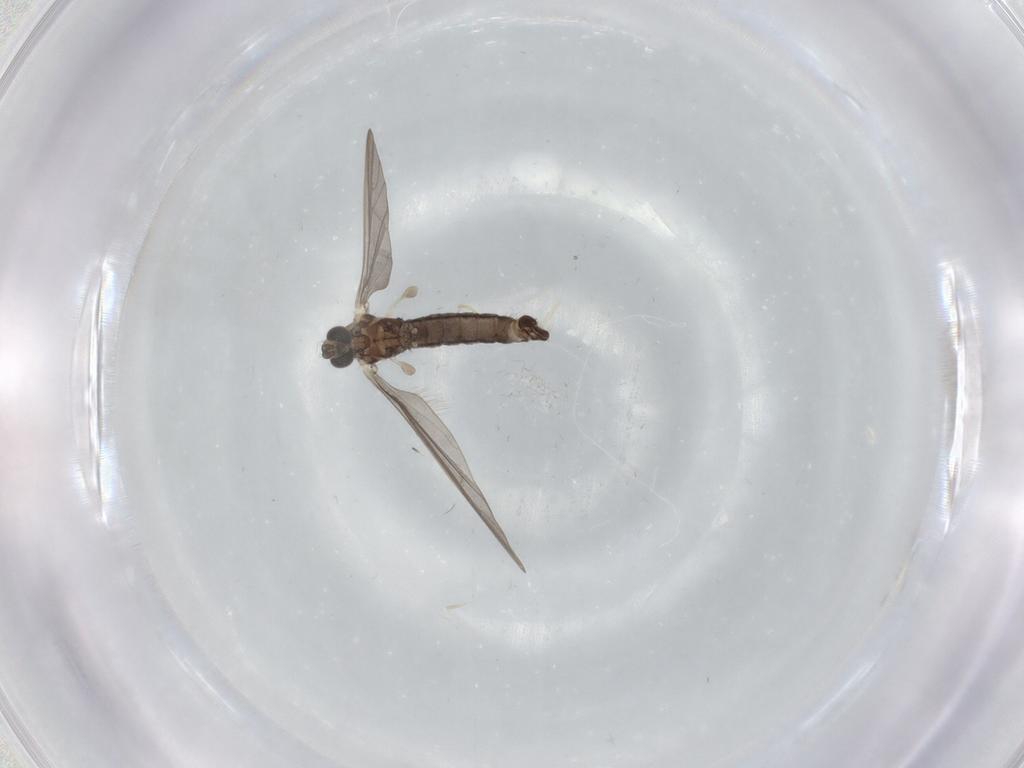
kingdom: Animalia
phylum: Arthropoda
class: Insecta
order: Diptera
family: Limoniidae
